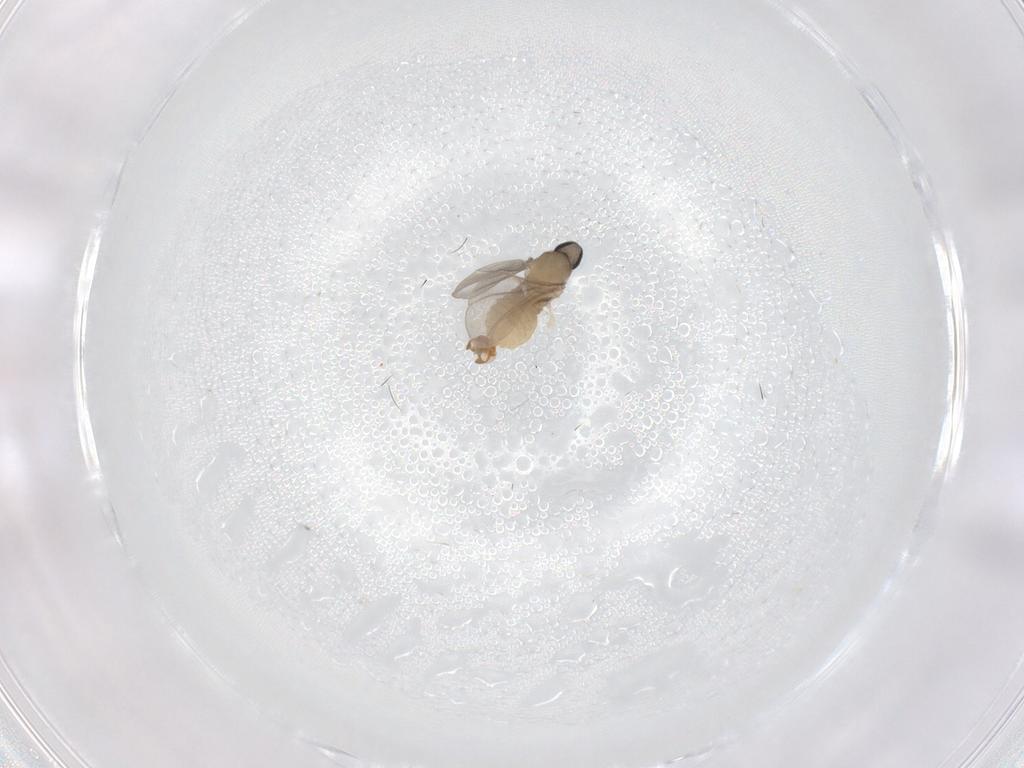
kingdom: Animalia
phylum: Arthropoda
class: Insecta
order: Diptera
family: Cecidomyiidae
